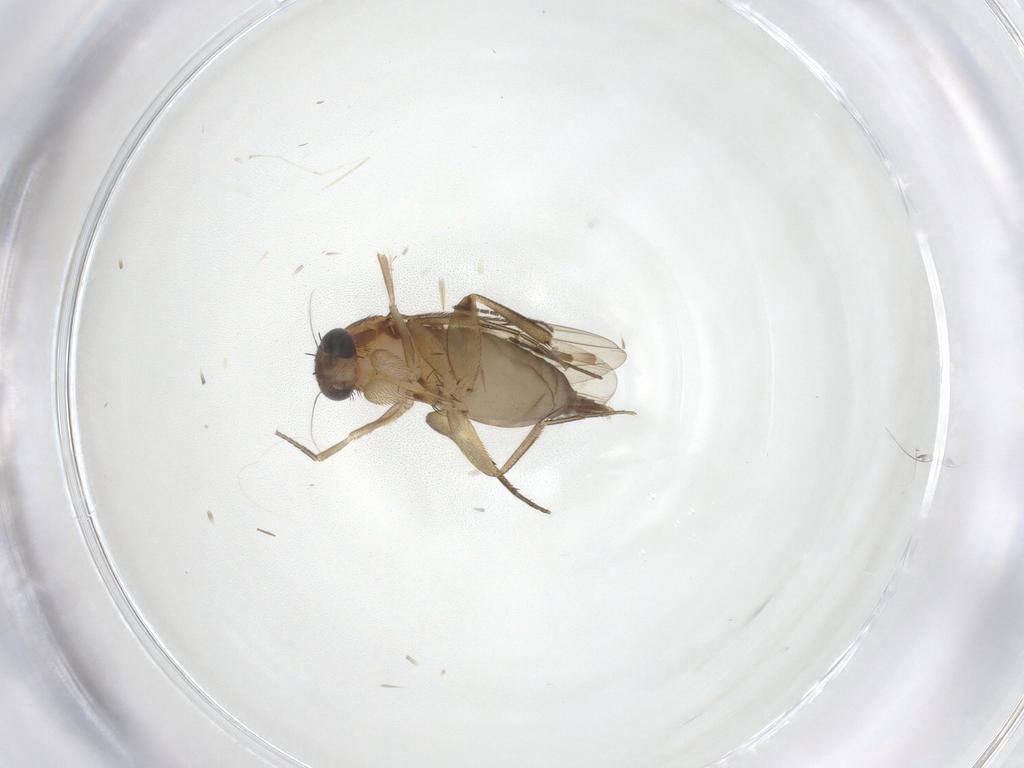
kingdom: Animalia
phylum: Arthropoda
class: Insecta
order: Diptera
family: Phoridae
